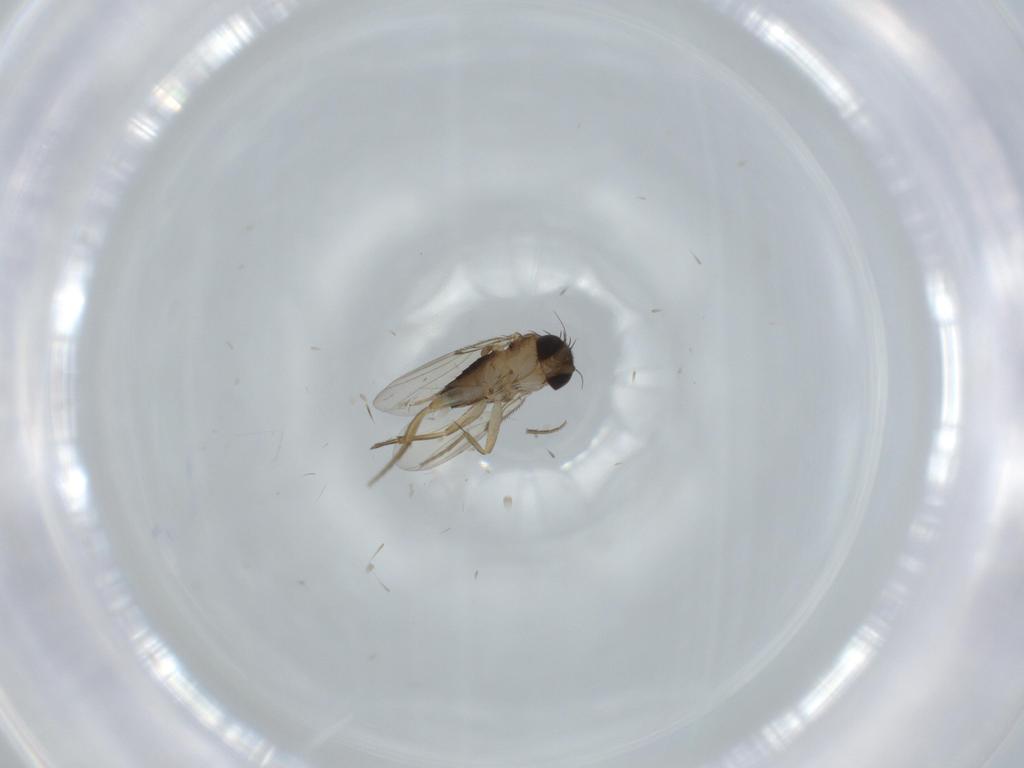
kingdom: Animalia
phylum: Arthropoda
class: Insecta
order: Diptera
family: Phoridae
